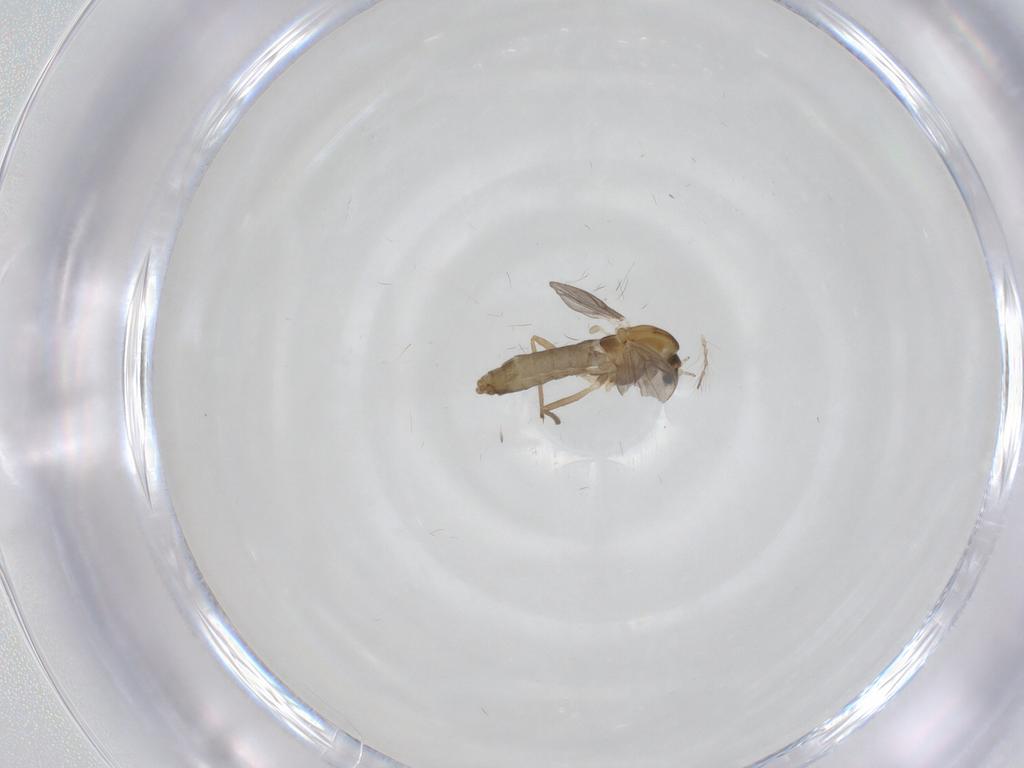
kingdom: Animalia
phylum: Arthropoda
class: Insecta
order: Diptera
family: Chironomidae
